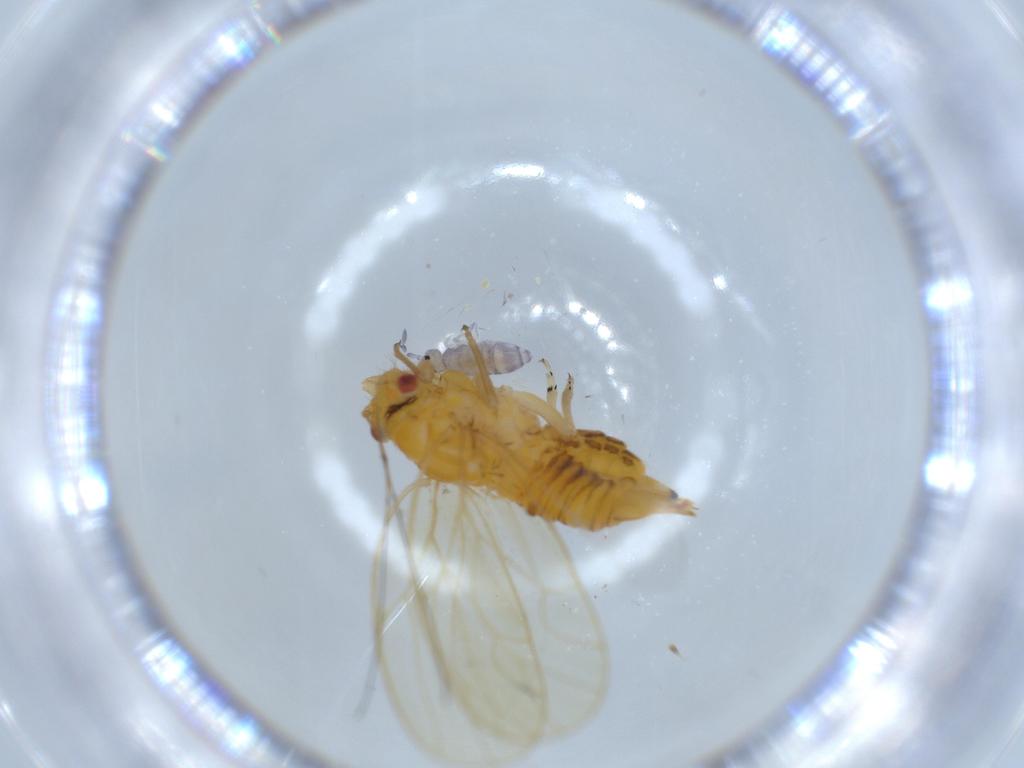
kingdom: Animalia
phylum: Arthropoda
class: Insecta
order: Hemiptera
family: Psyllidae
